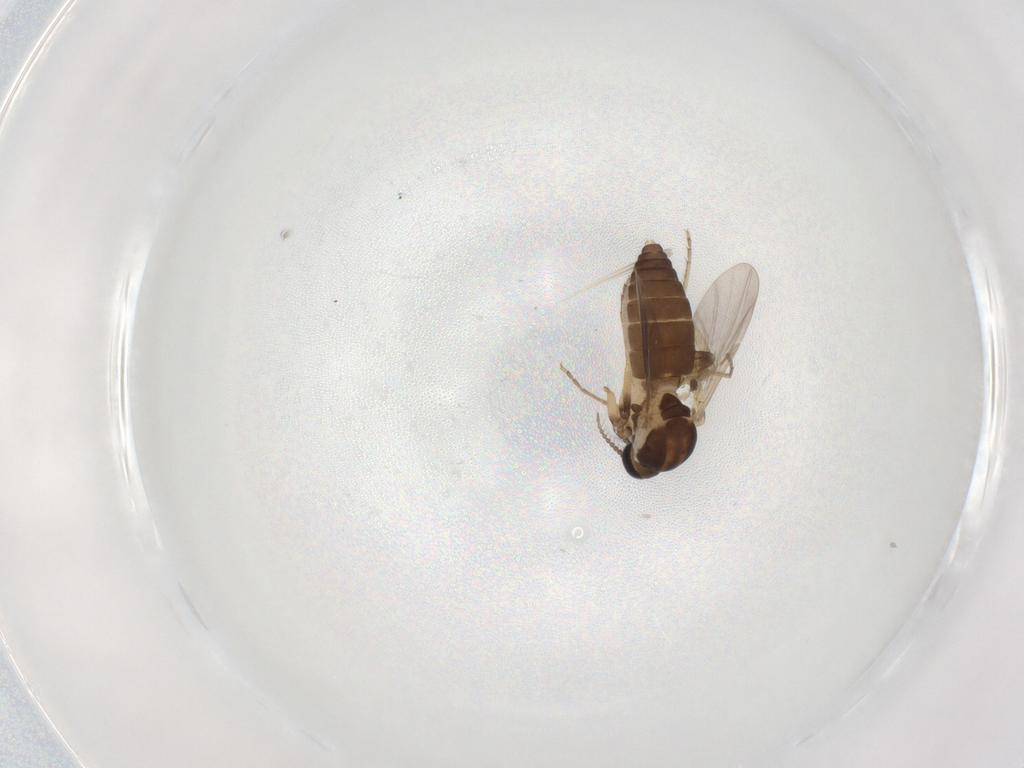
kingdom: Animalia
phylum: Arthropoda
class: Insecta
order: Diptera
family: Ceratopogonidae
